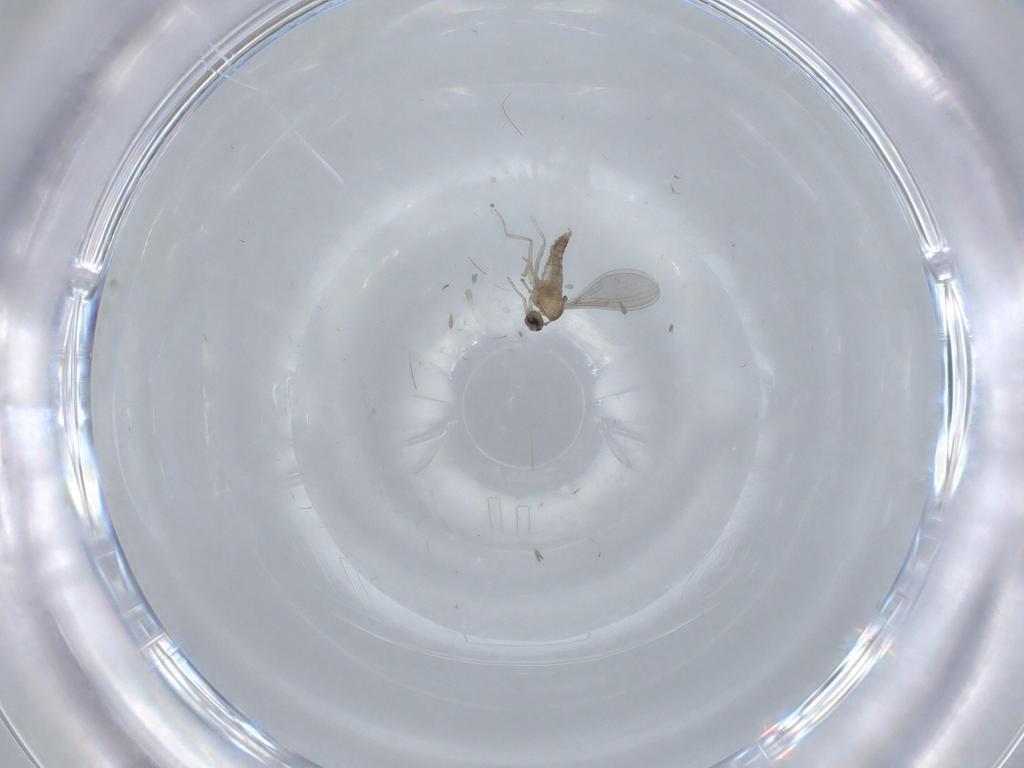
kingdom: Animalia
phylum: Arthropoda
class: Insecta
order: Diptera
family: Cecidomyiidae
